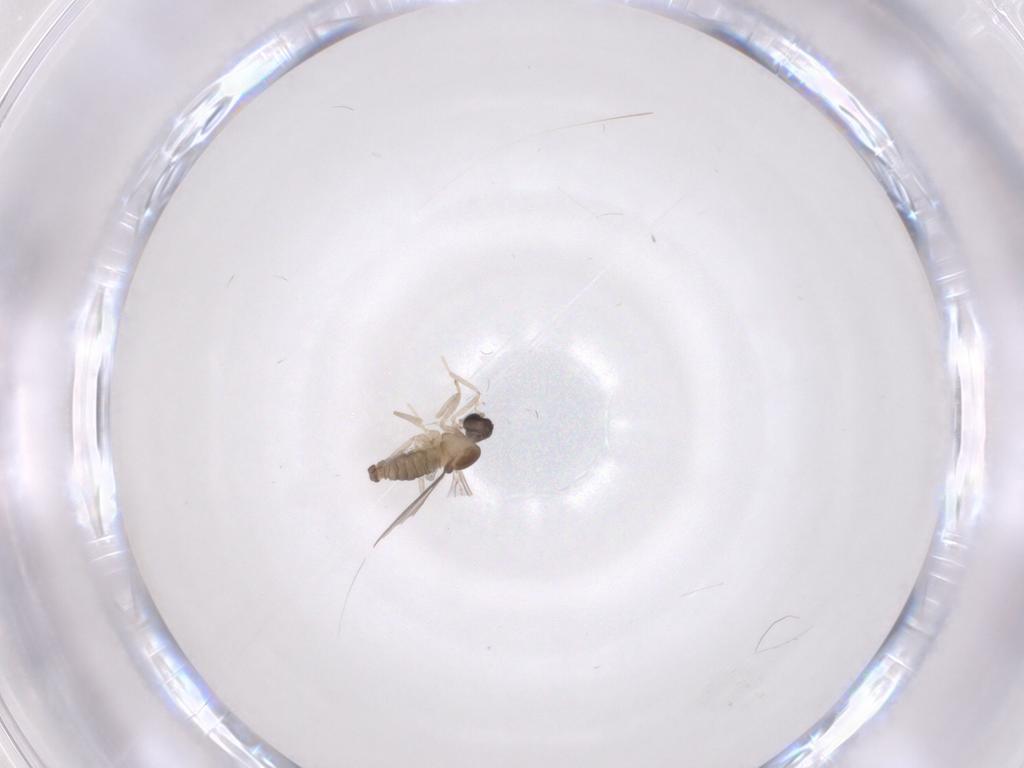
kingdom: Animalia
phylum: Arthropoda
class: Insecta
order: Diptera
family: Cecidomyiidae
